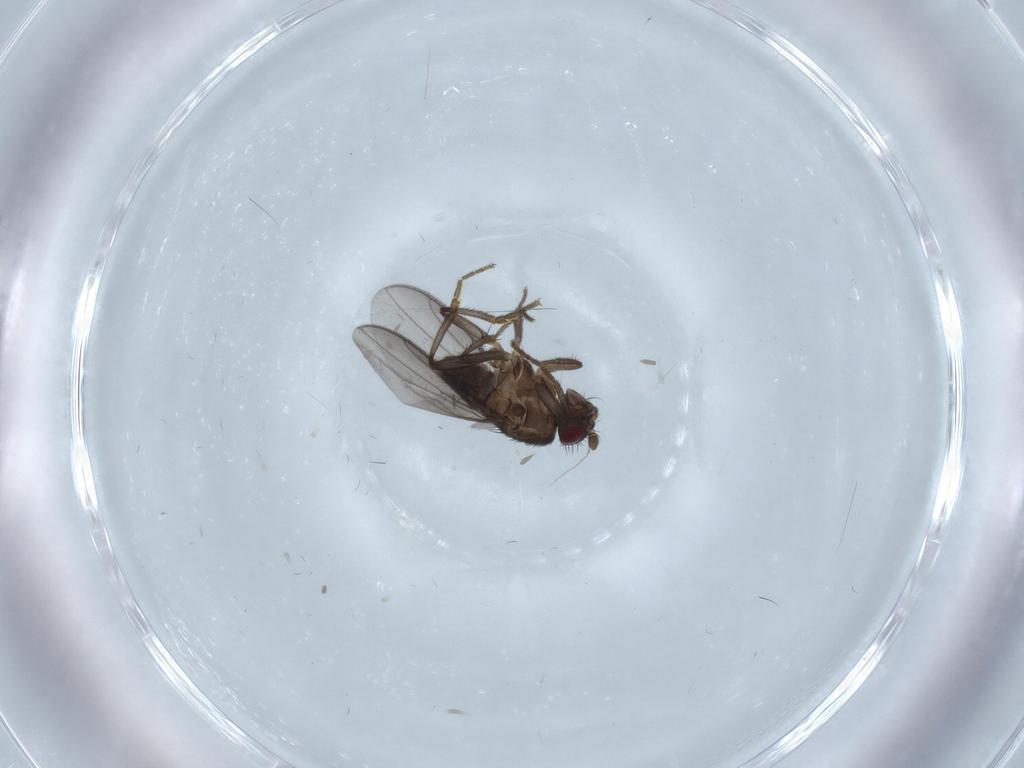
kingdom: Animalia
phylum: Arthropoda
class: Insecta
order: Diptera
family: Sphaeroceridae
